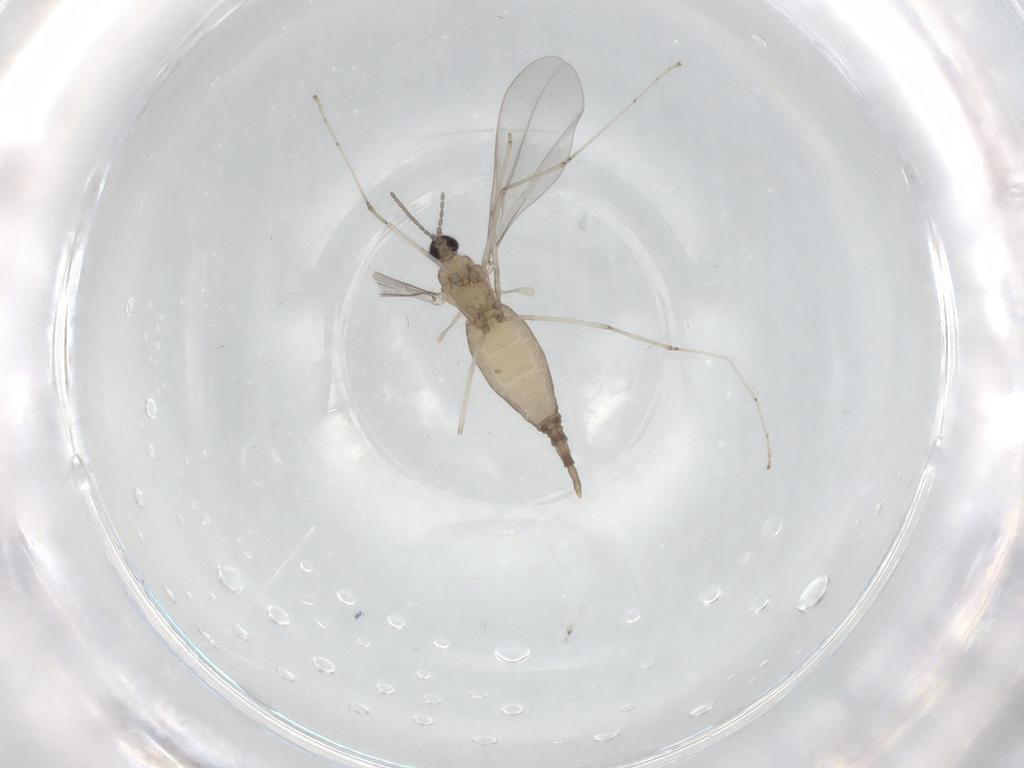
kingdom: Animalia
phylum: Arthropoda
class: Insecta
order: Diptera
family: Cecidomyiidae
